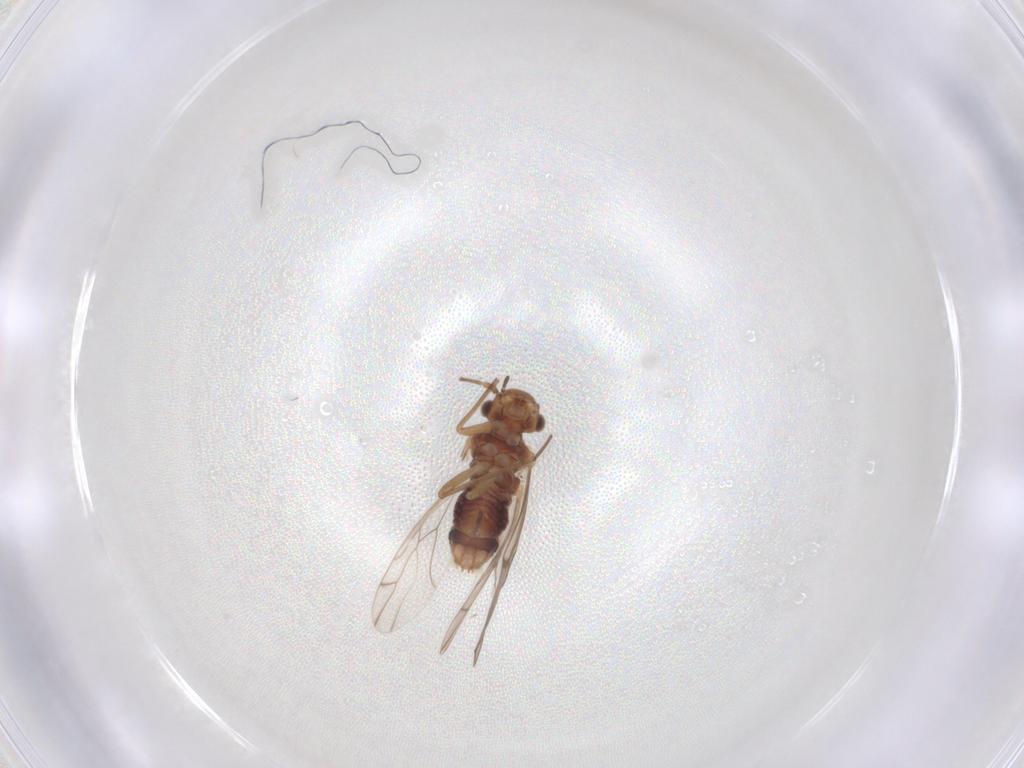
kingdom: Animalia
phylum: Arthropoda
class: Insecta
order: Psocodea
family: Lachesillidae
